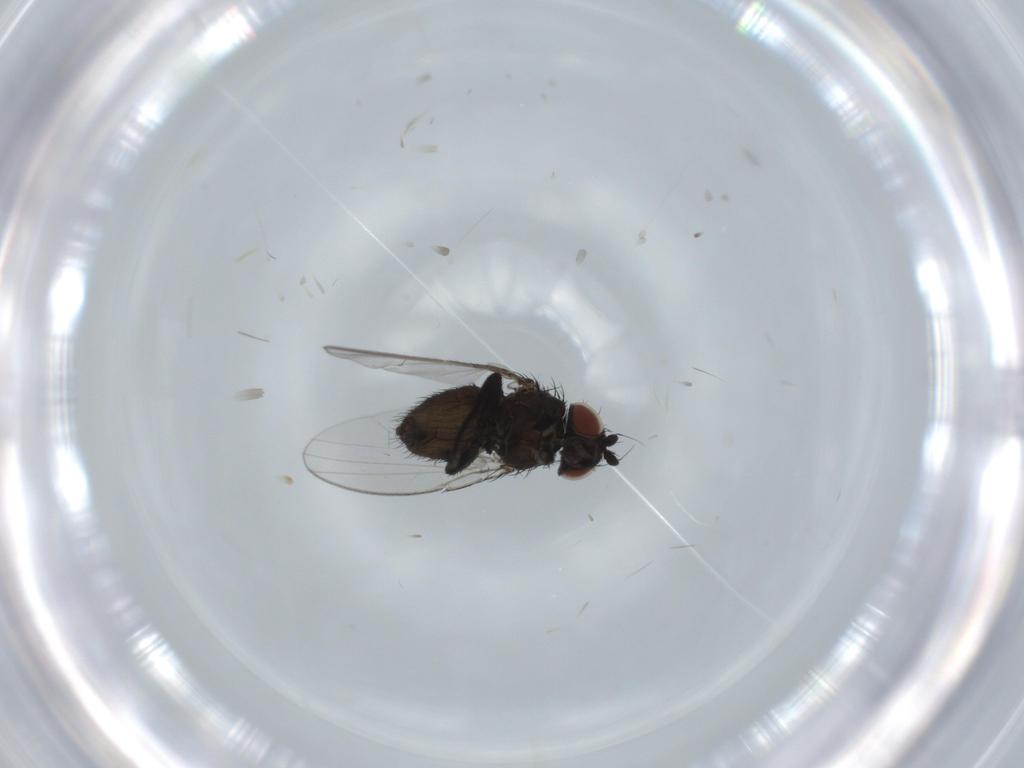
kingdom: Animalia
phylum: Arthropoda
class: Insecta
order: Diptera
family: Milichiidae
